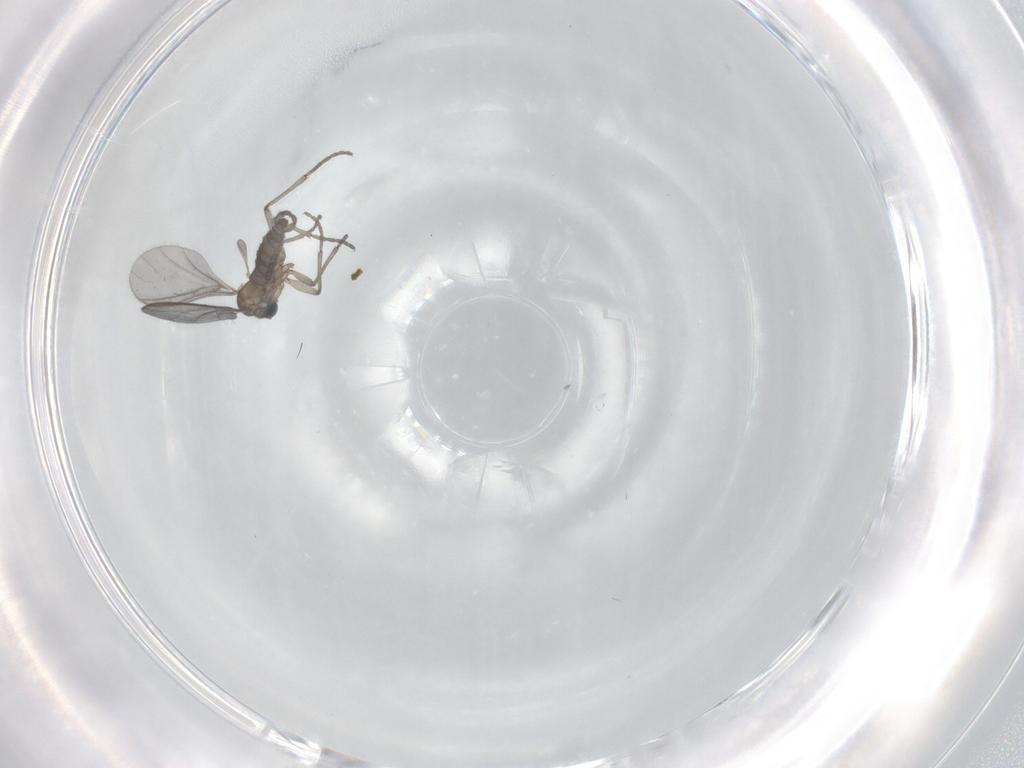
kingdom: Animalia
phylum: Arthropoda
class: Insecta
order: Diptera
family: Sciaridae
